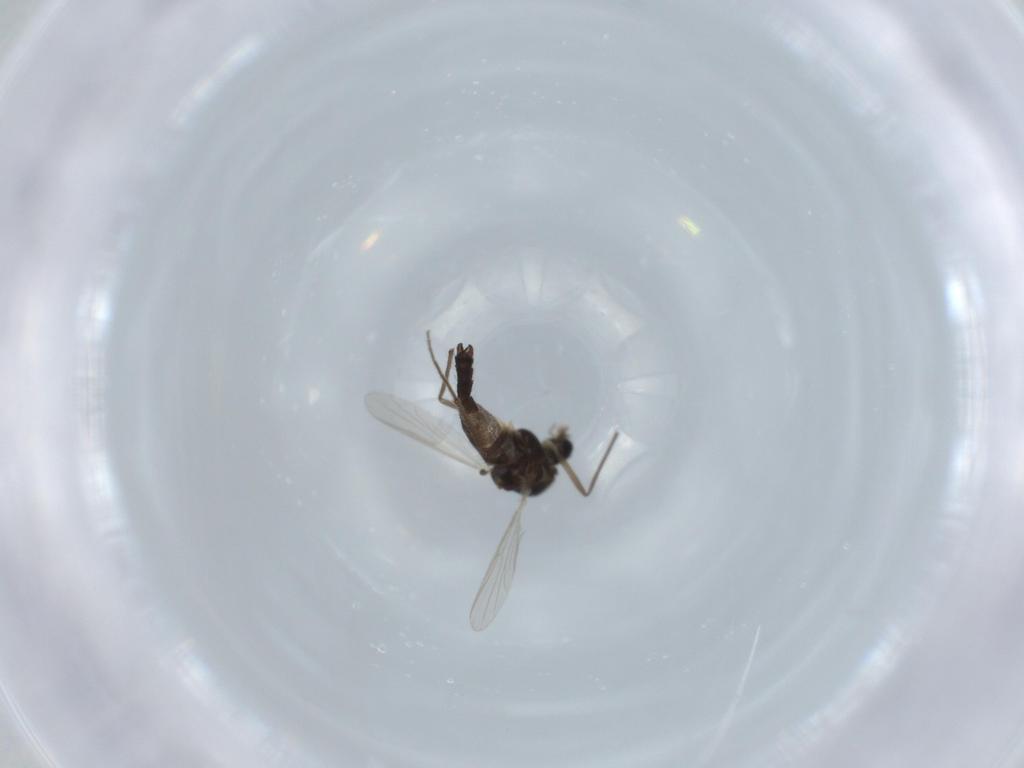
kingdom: Animalia
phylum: Arthropoda
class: Insecta
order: Diptera
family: Chironomidae
